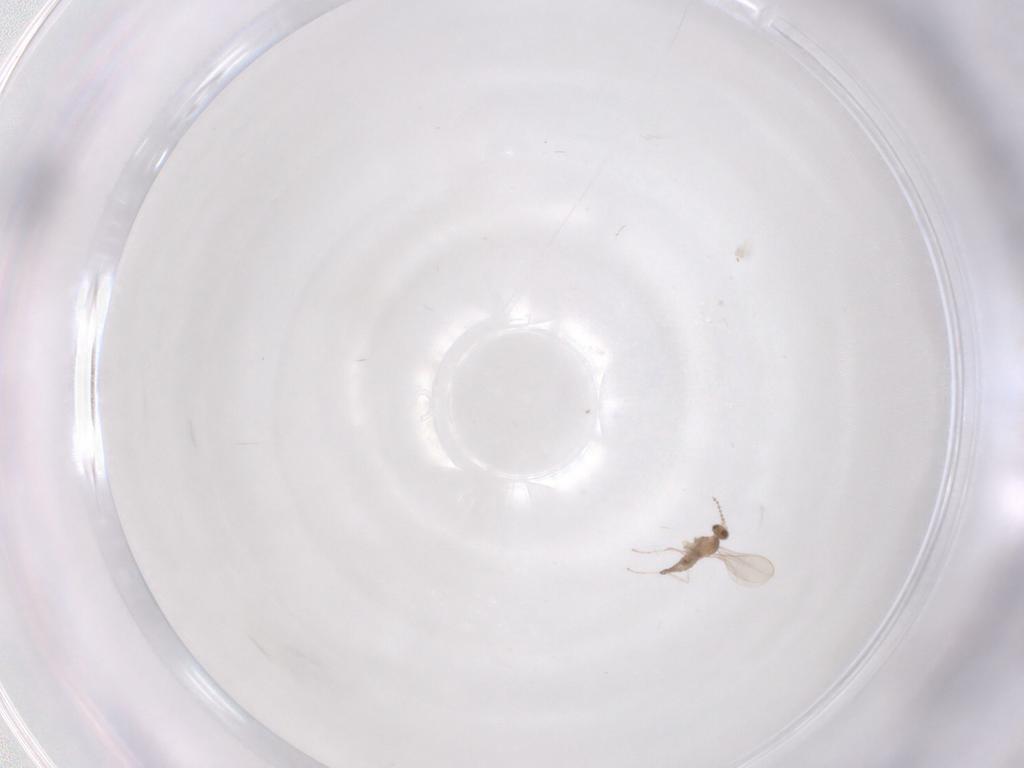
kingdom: Animalia
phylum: Arthropoda
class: Insecta
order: Diptera
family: Cecidomyiidae
